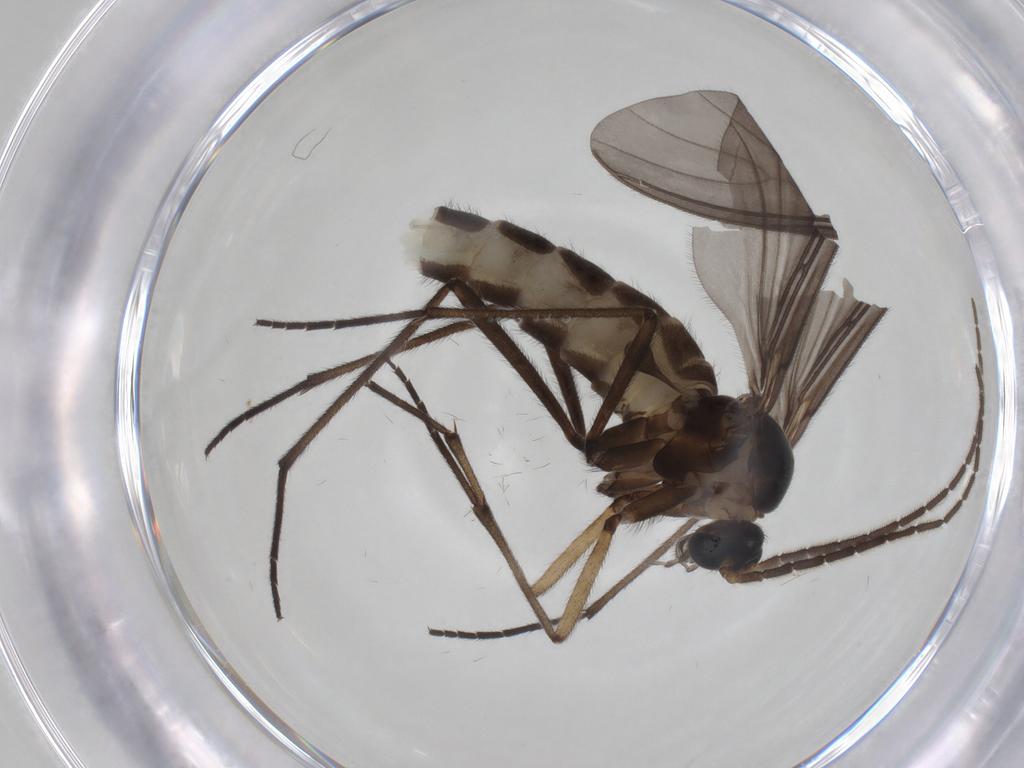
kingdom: Animalia
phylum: Arthropoda
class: Insecta
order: Diptera
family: Sciaridae
